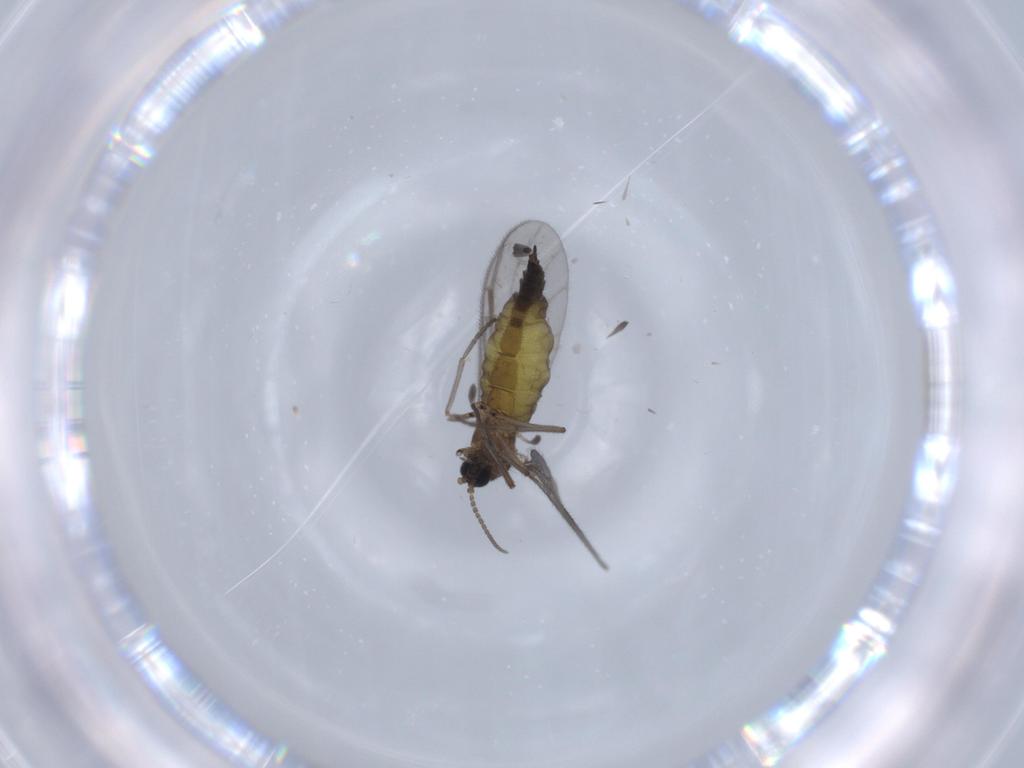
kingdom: Animalia
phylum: Arthropoda
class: Insecta
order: Diptera
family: Sciaridae
